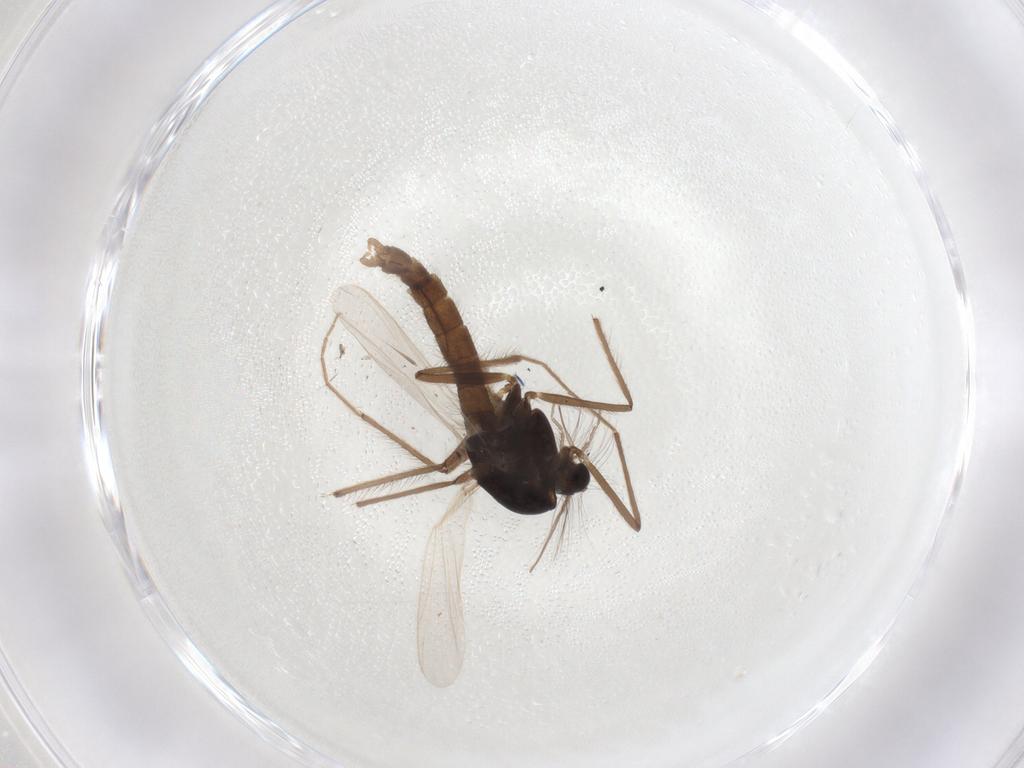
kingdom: Animalia
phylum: Arthropoda
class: Insecta
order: Diptera
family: Chironomidae
